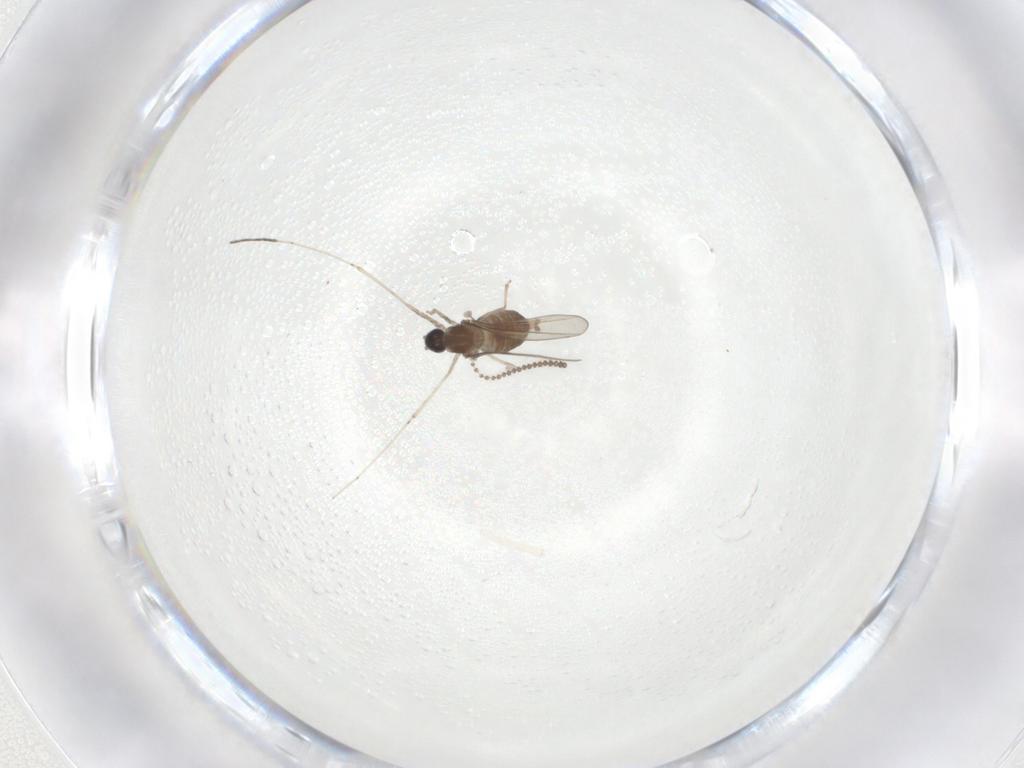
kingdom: Animalia
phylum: Arthropoda
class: Insecta
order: Diptera
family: Cecidomyiidae
